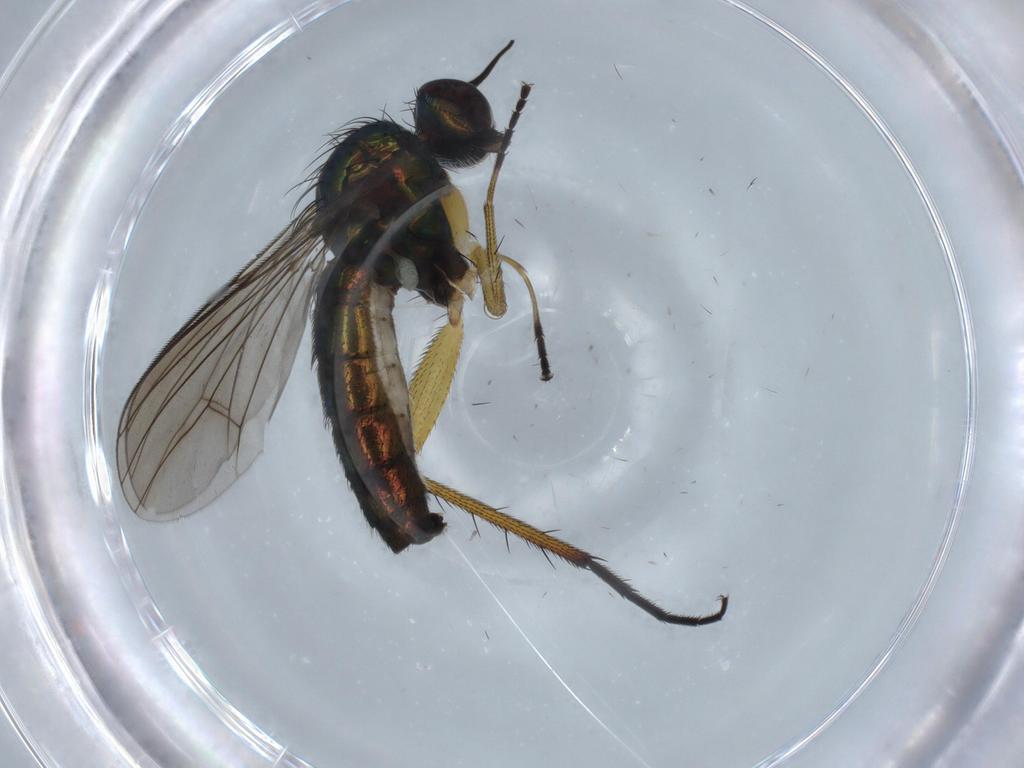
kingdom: Animalia
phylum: Arthropoda
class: Insecta
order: Diptera
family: Dolichopodidae
